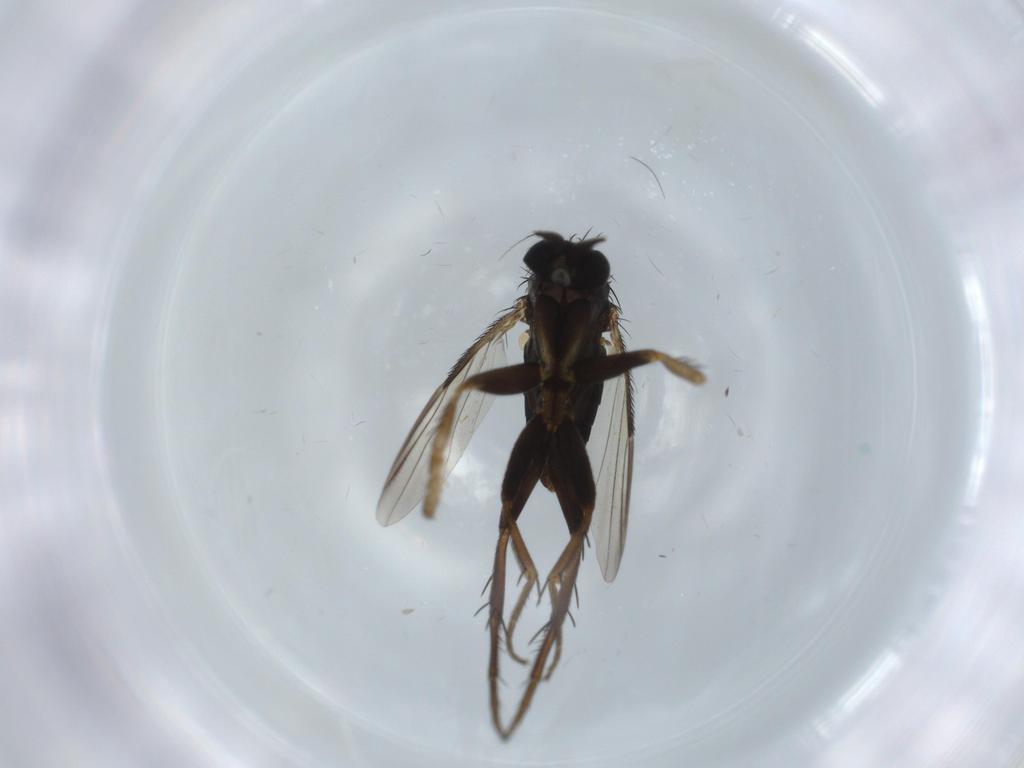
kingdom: Animalia
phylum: Arthropoda
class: Insecta
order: Diptera
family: Phoridae
